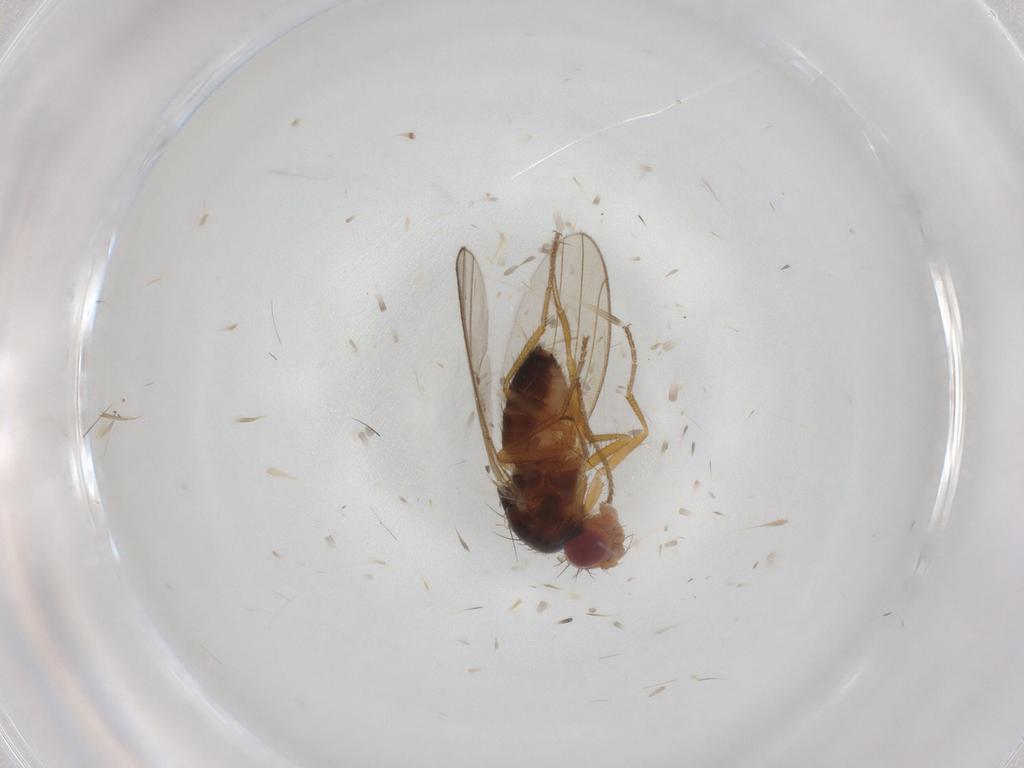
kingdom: Animalia
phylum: Arthropoda
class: Insecta
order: Diptera
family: Drosophilidae
